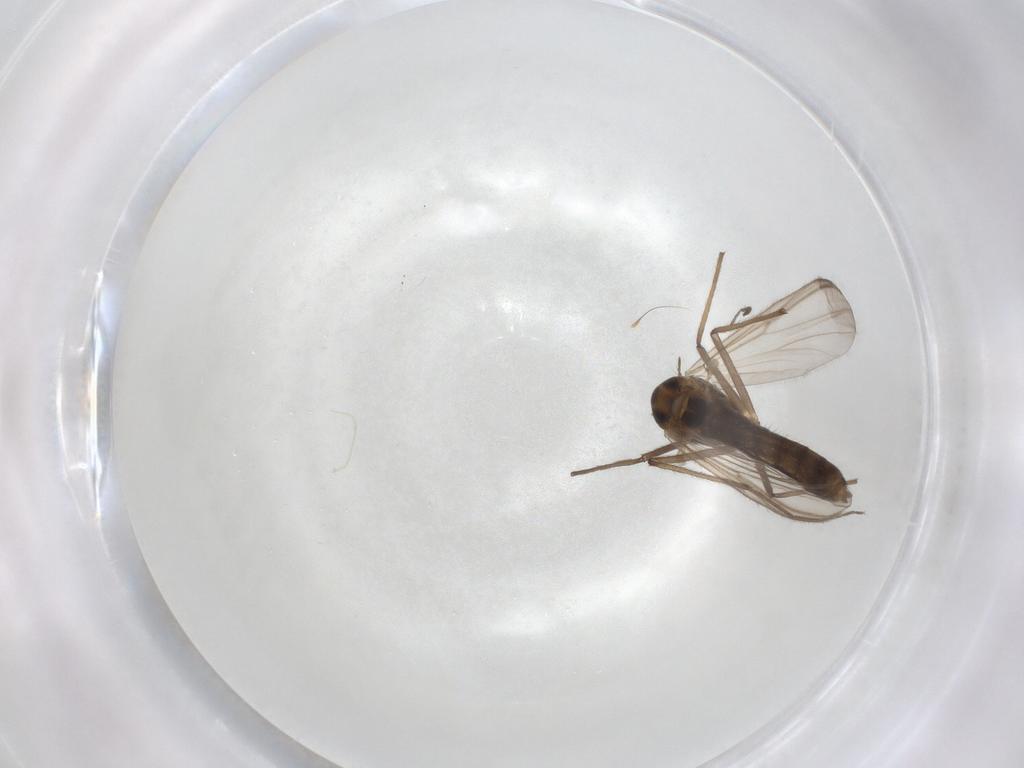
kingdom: Animalia
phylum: Arthropoda
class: Insecta
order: Diptera
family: Chironomidae
